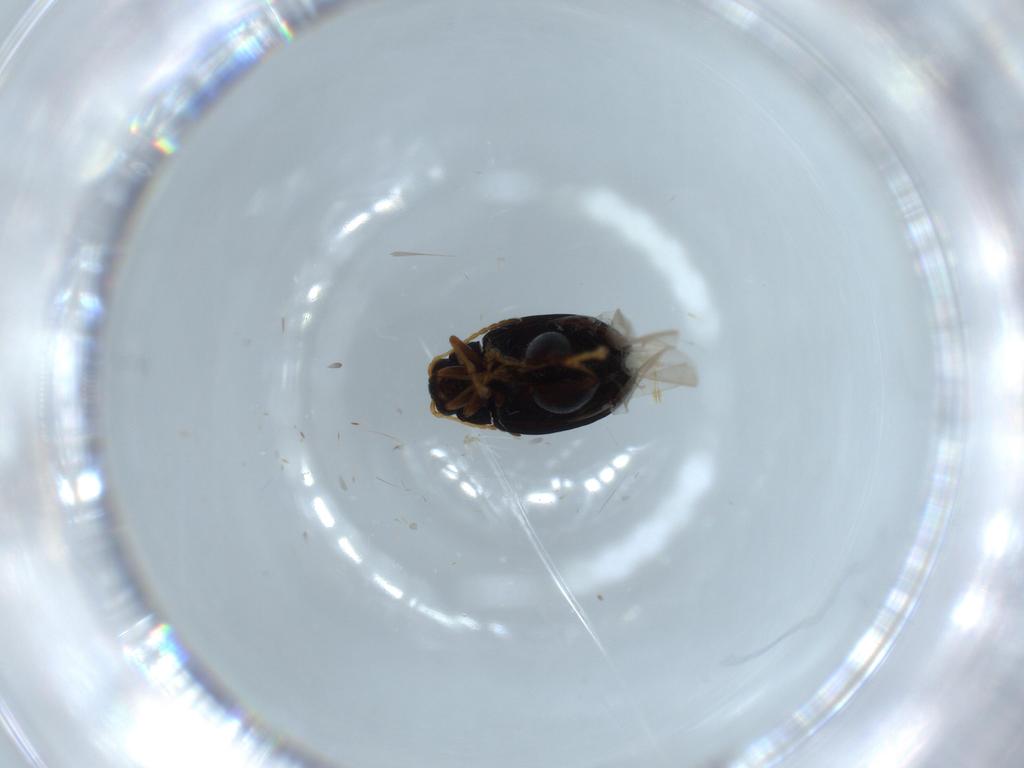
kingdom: Animalia
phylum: Arthropoda
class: Insecta
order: Coleoptera
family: Chrysomelidae
